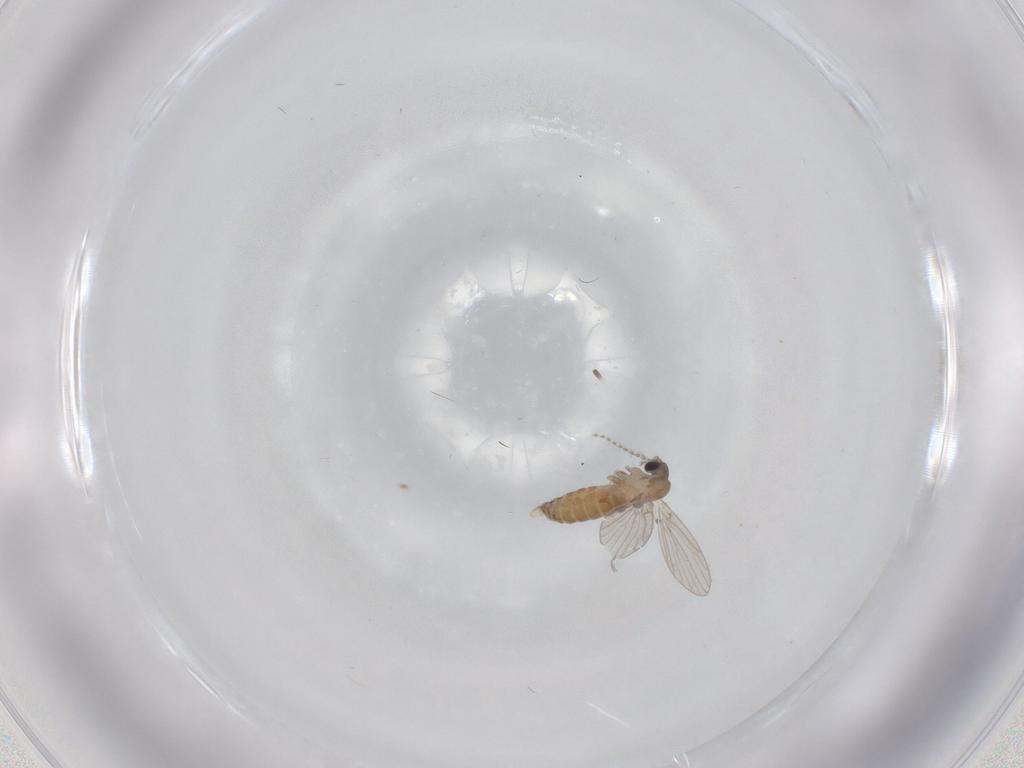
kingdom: Animalia
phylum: Arthropoda
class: Insecta
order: Diptera
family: Psychodidae
